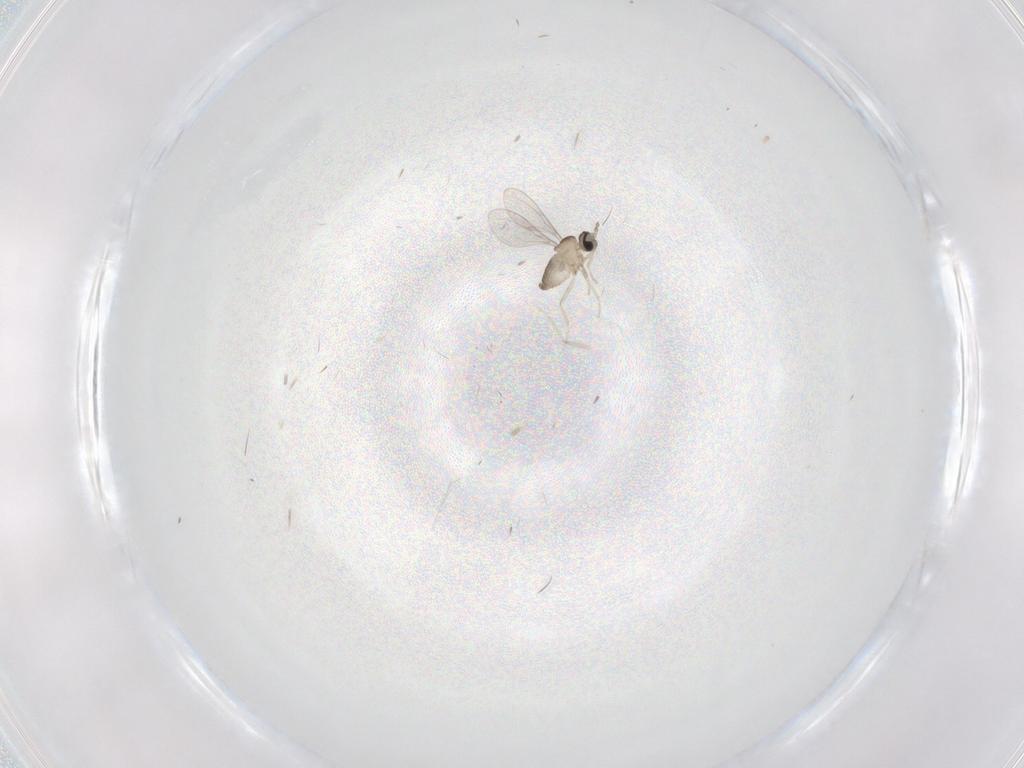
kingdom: Animalia
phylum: Arthropoda
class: Insecta
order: Diptera
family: Cecidomyiidae
